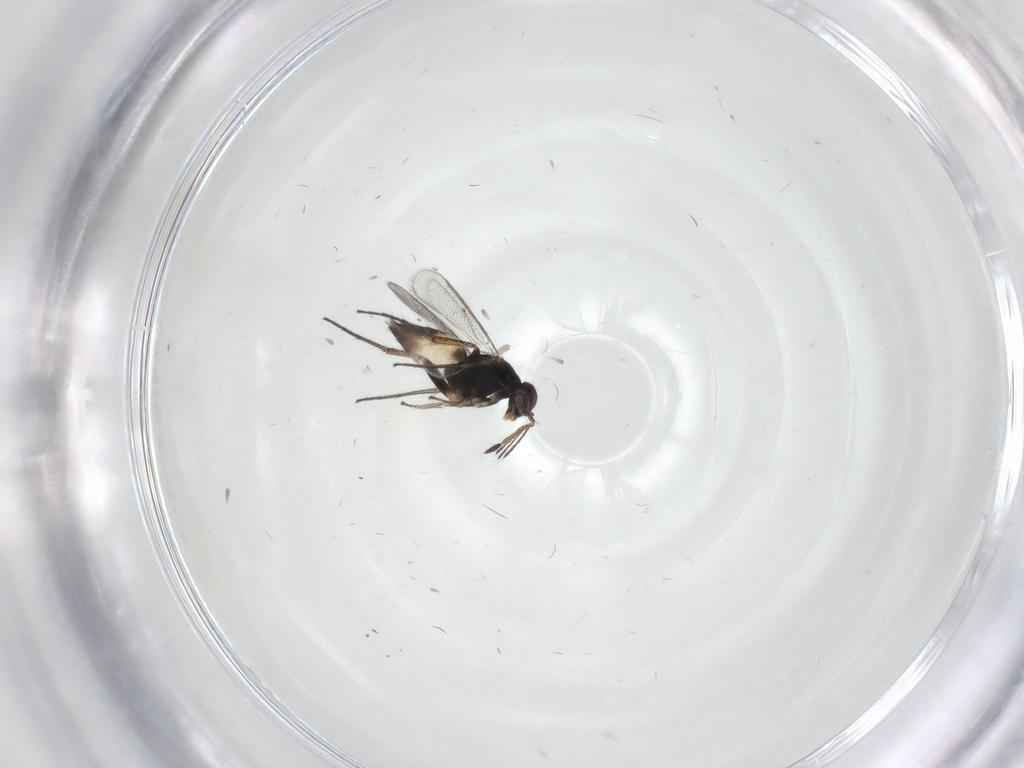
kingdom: Animalia
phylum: Arthropoda
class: Insecta
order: Hymenoptera
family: Eulophidae
